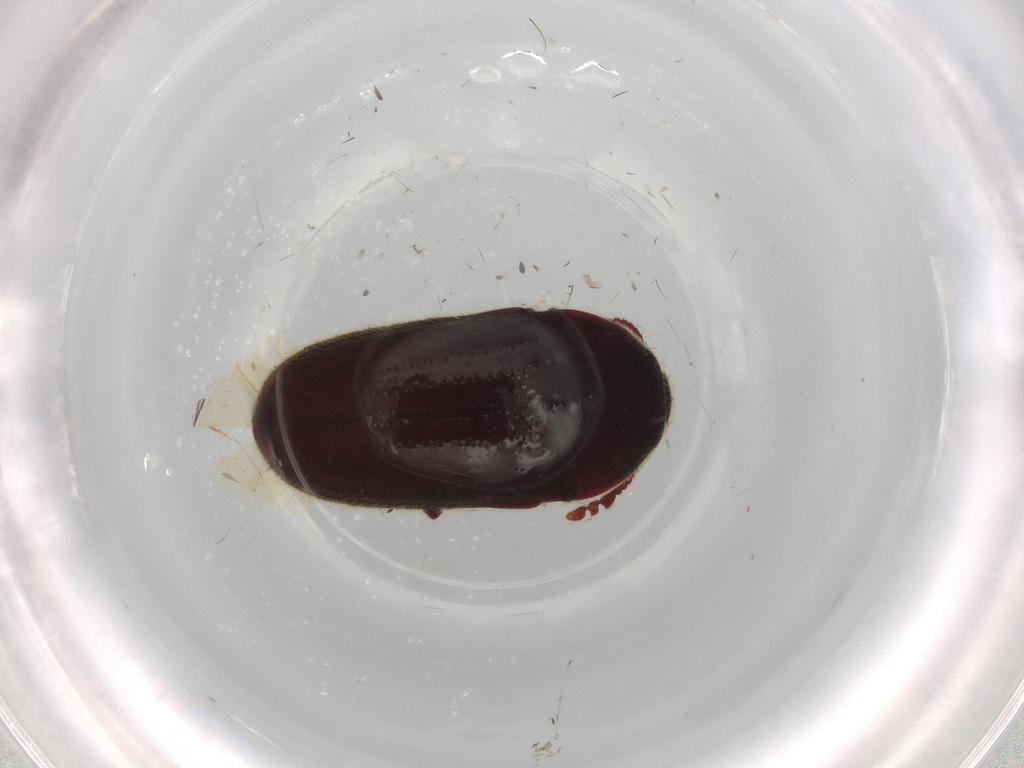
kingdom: Animalia
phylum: Arthropoda
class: Insecta
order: Coleoptera
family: Throscidae
